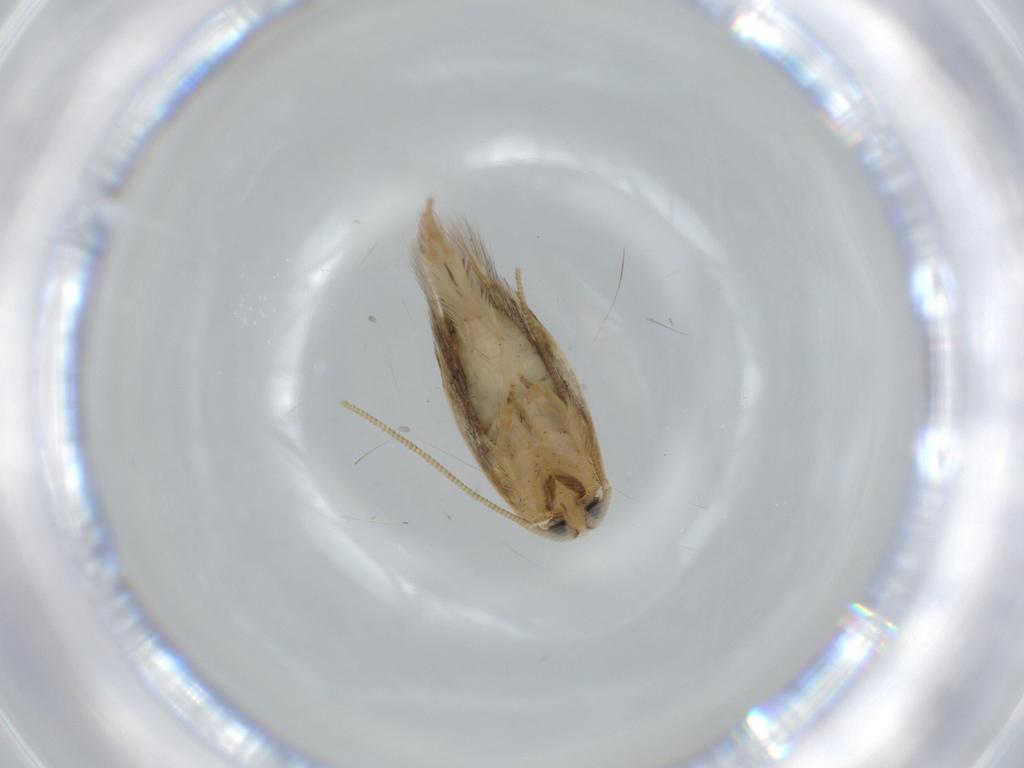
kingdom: Animalia
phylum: Arthropoda
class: Insecta
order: Lepidoptera
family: Opostegidae
